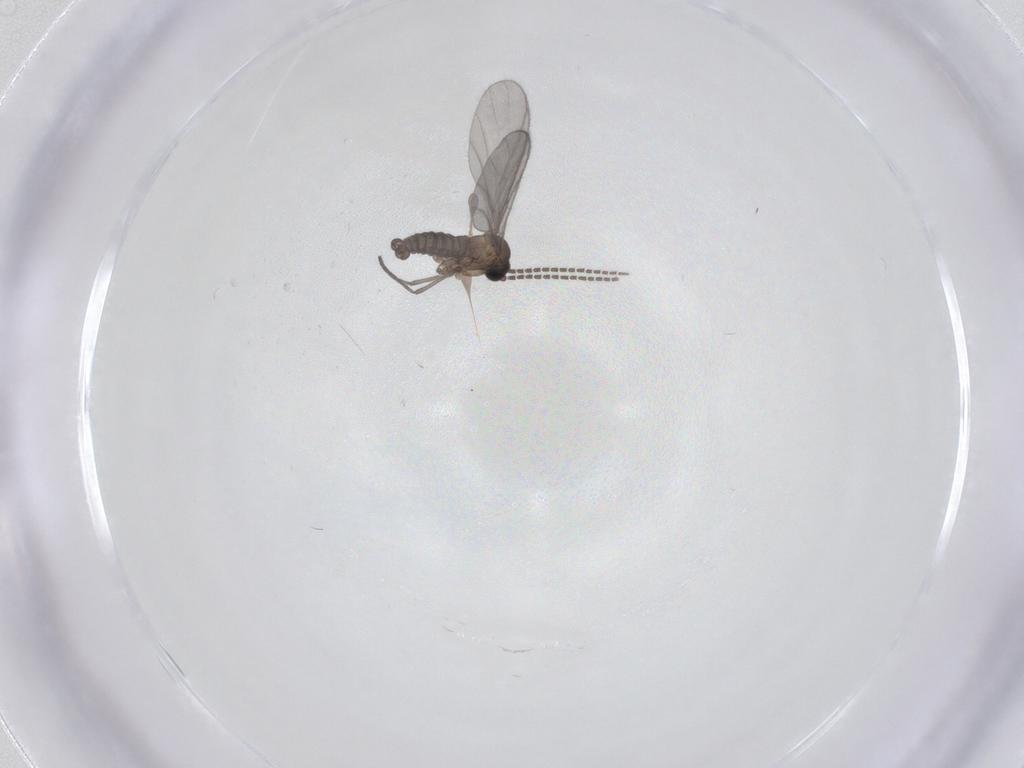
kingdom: Animalia
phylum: Arthropoda
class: Insecta
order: Diptera
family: Sciaridae
